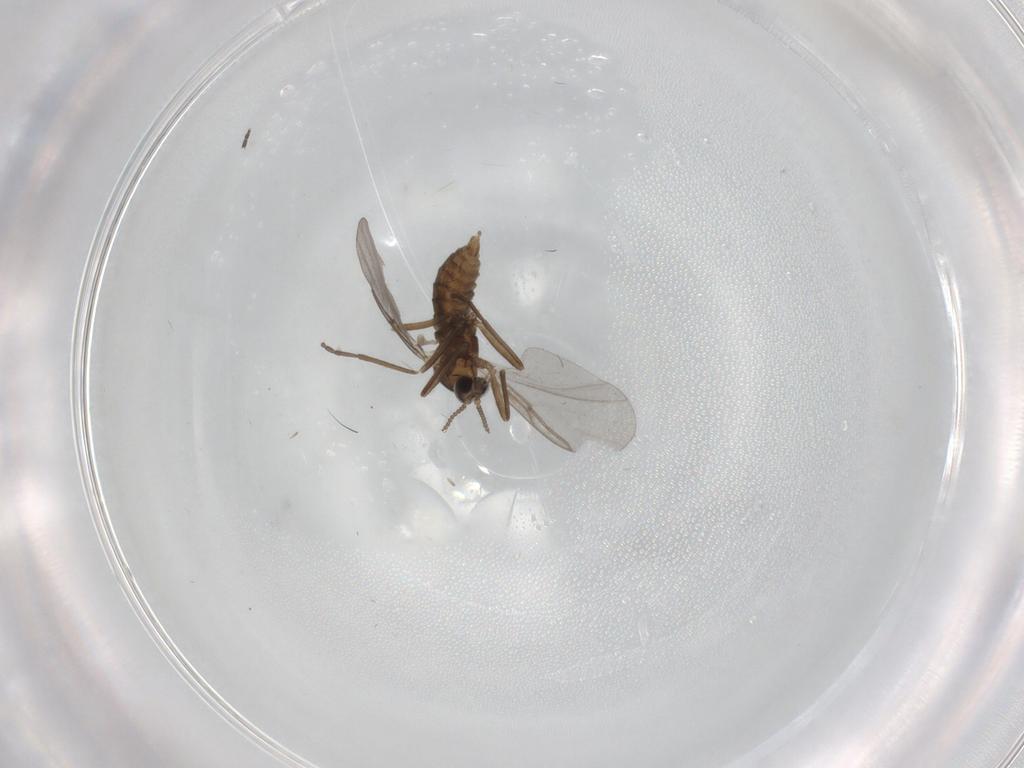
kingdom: Animalia
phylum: Arthropoda
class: Insecta
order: Diptera
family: Cecidomyiidae
